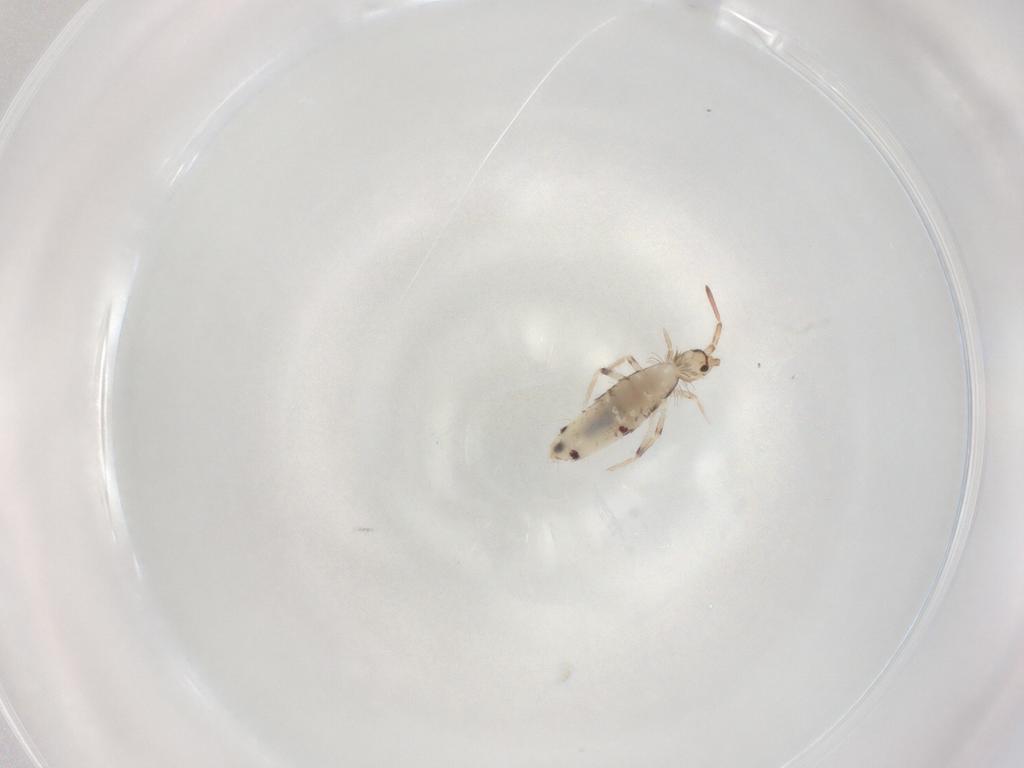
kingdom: Animalia
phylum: Arthropoda
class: Collembola
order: Entomobryomorpha
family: Entomobryidae
